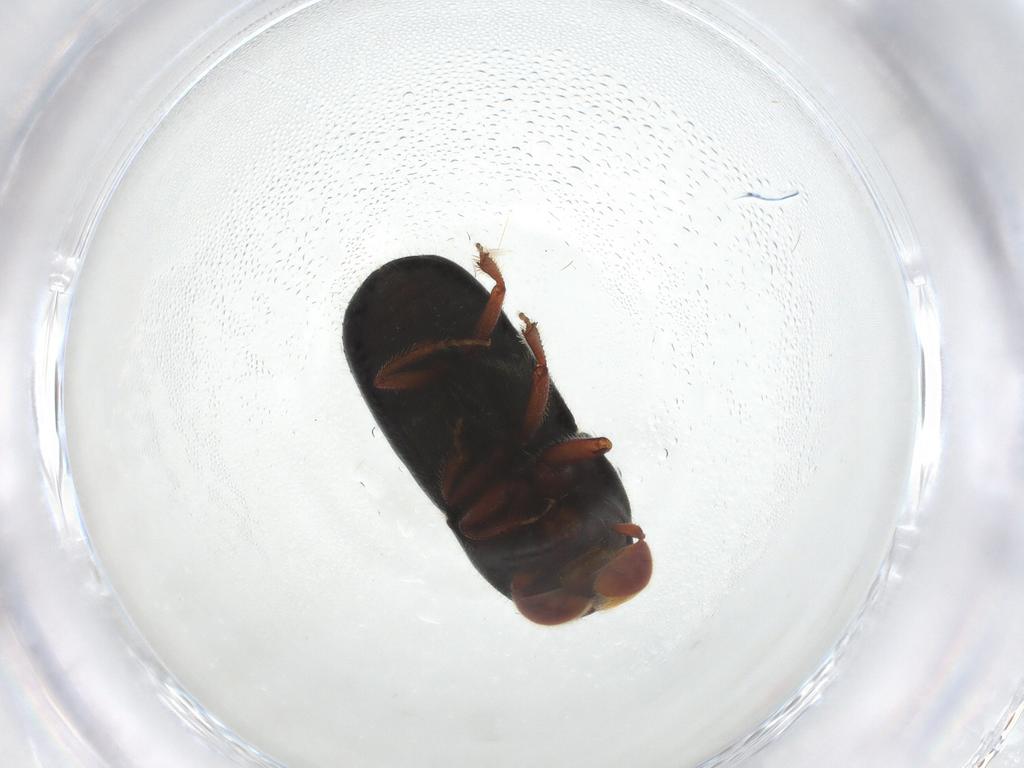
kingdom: Animalia
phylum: Arthropoda
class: Insecta
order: Coleoptera
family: Curculionidae
